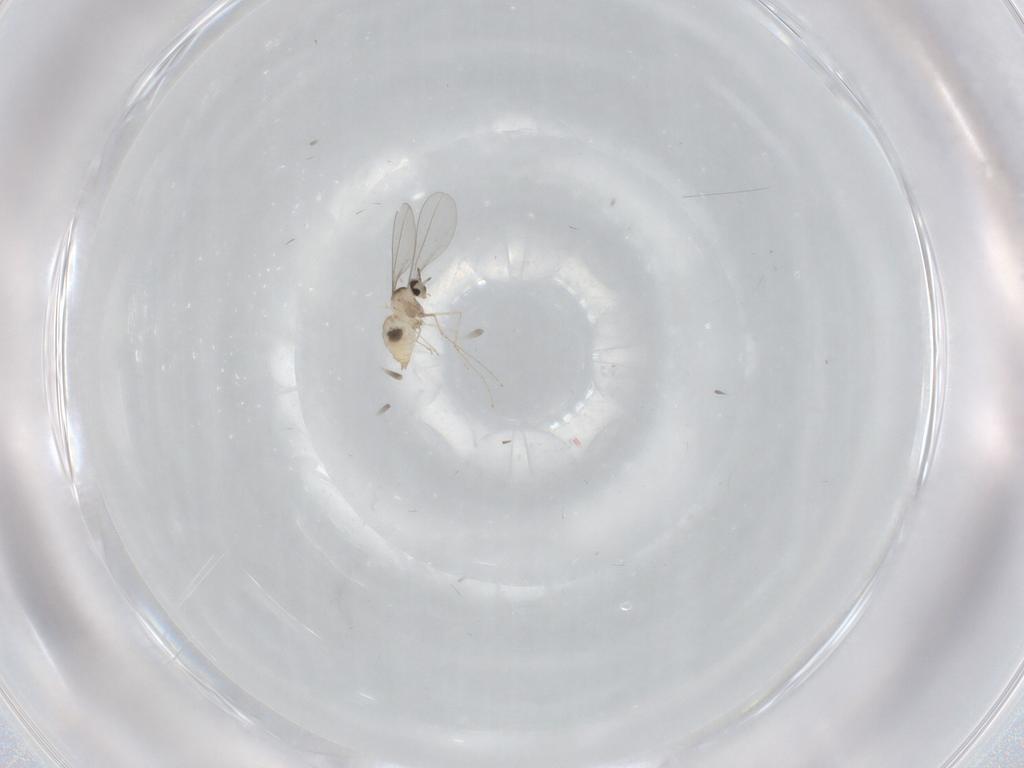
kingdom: Animalia
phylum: Arthropoda
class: Insecta
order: Diptera
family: Cecidomyiidae
